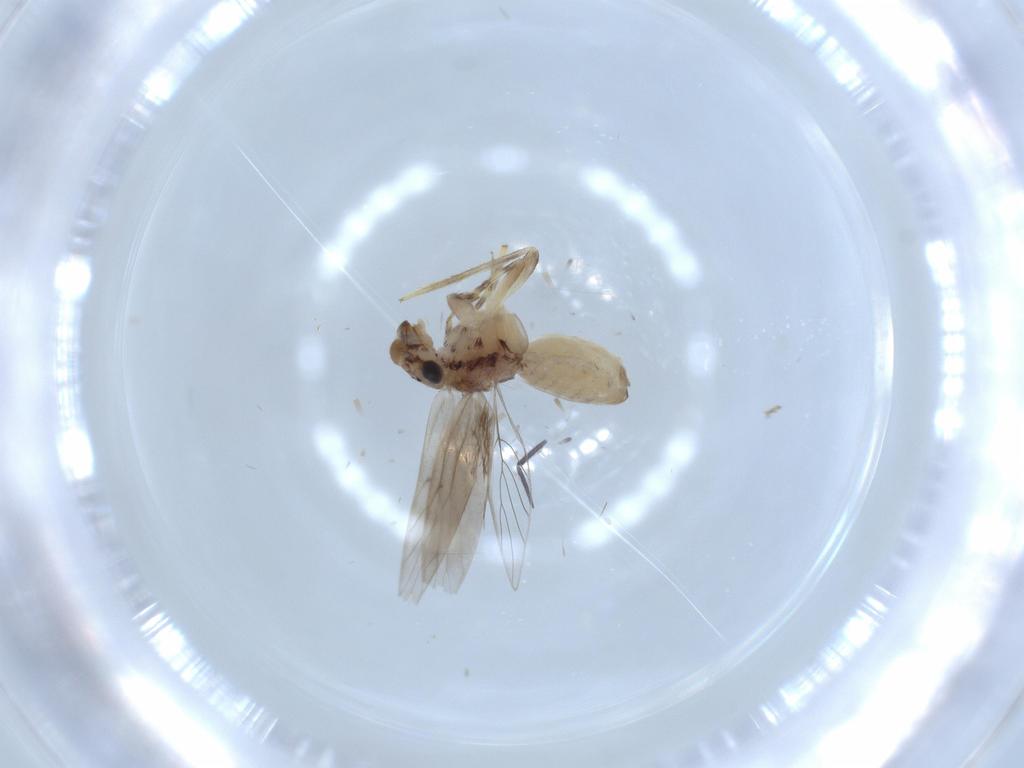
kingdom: Animalia
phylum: Arthropoda
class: Insecta
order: Psocodea
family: Lepidopsocidae
